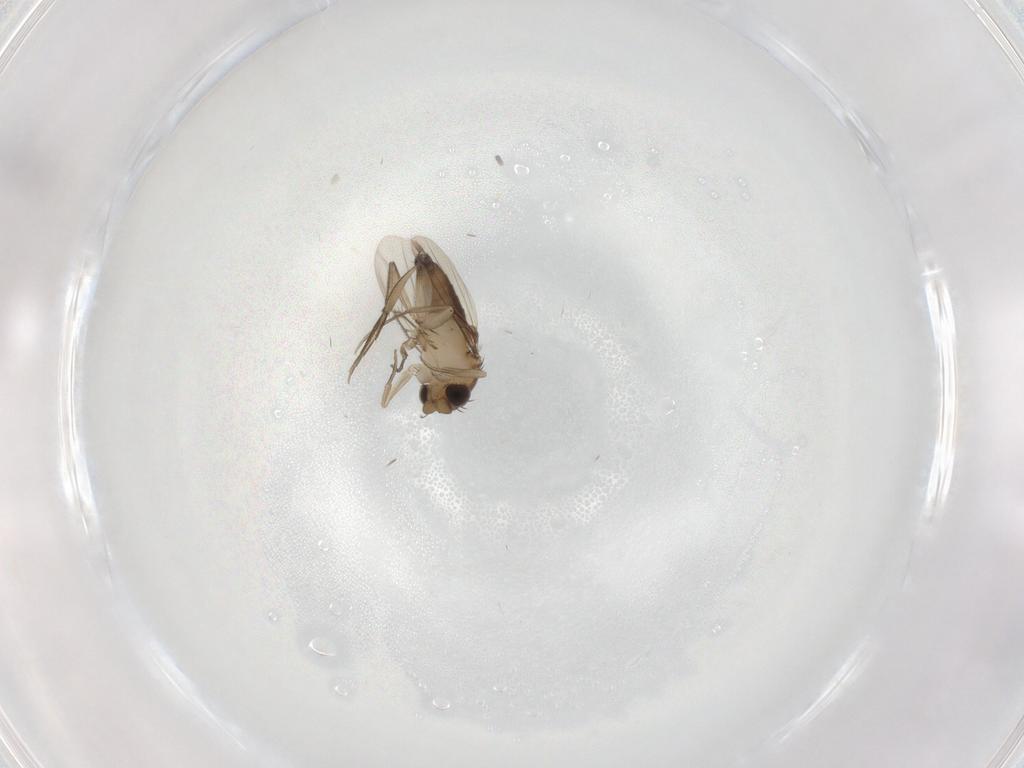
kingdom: Animalia
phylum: Arthropoda
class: Insecta
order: Diptera
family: Phoridae
